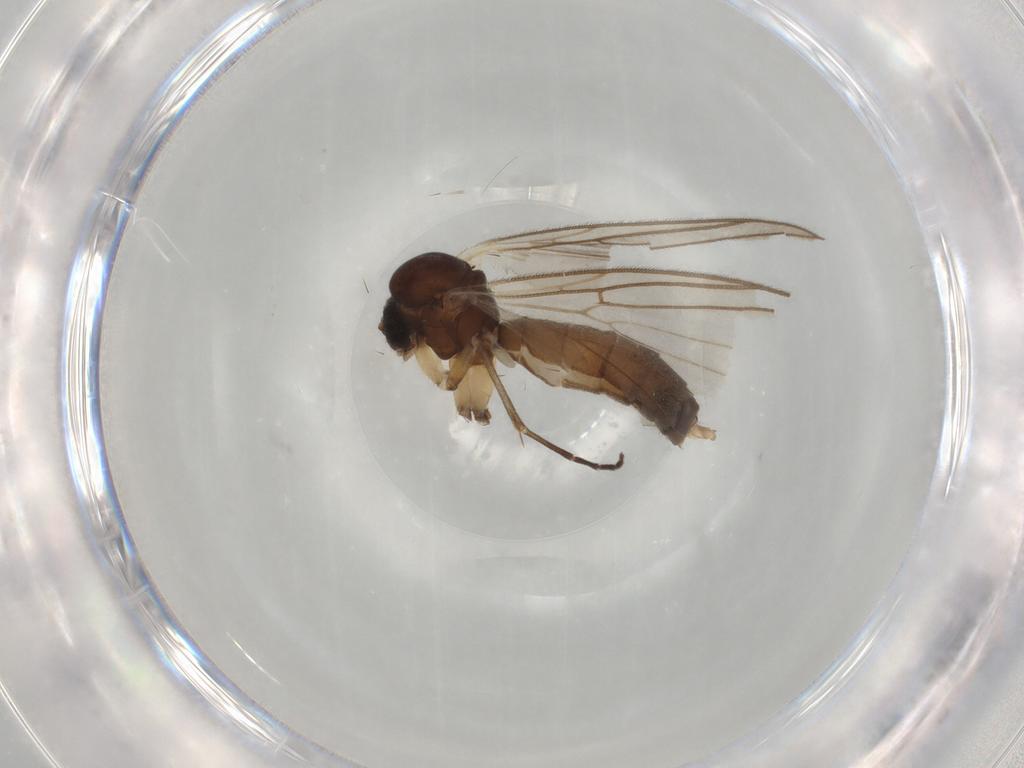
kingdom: Animalia
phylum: Arthropoda
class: Insecta
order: Diptera
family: Mycetophilidae
